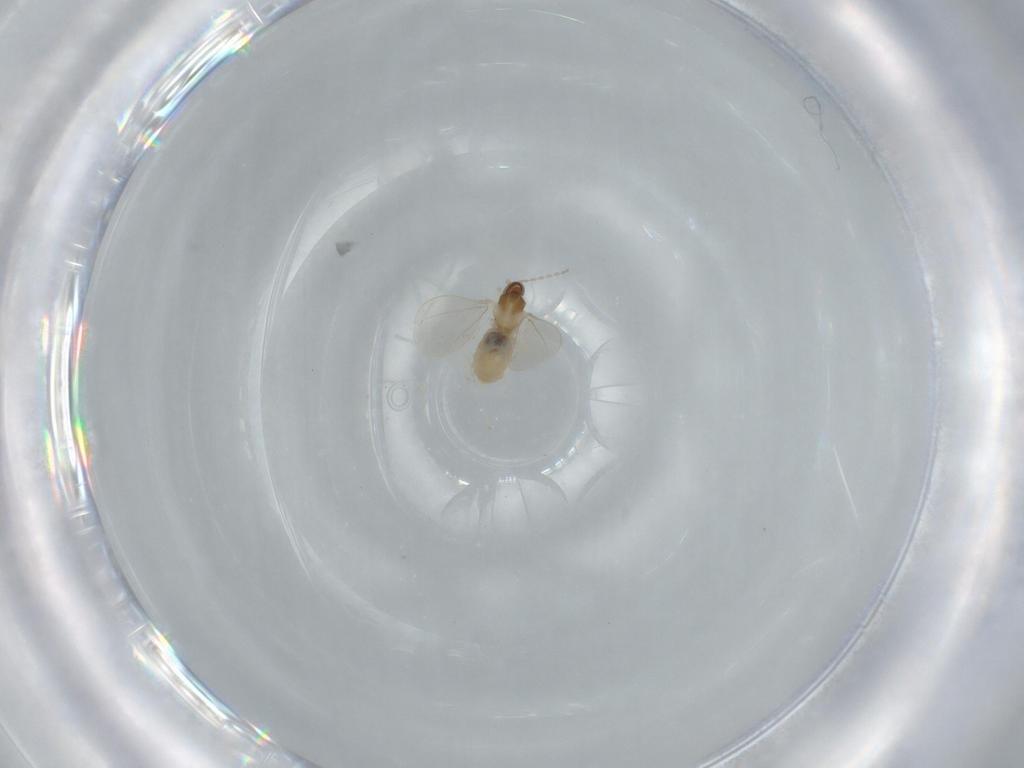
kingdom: Animalia
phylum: Arthropoda
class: Insecta
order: Diptera
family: Cecidomyiidae
